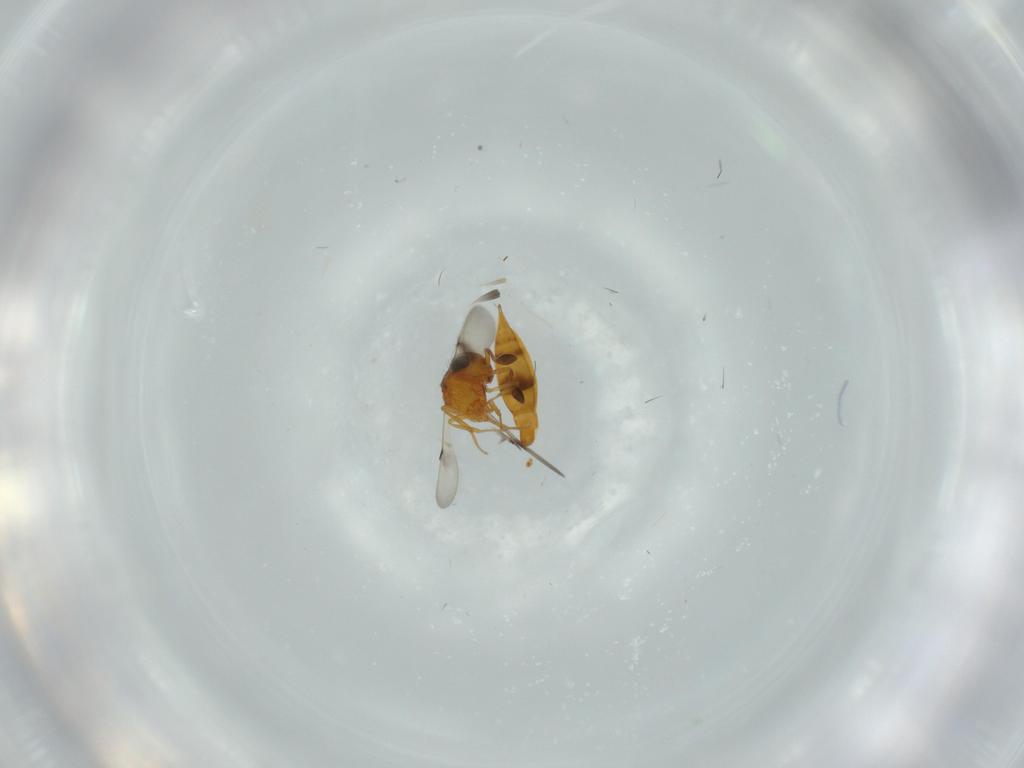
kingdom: Animalia
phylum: Arthropoda
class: Insecta
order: Hymenoptera
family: Scelionidae
